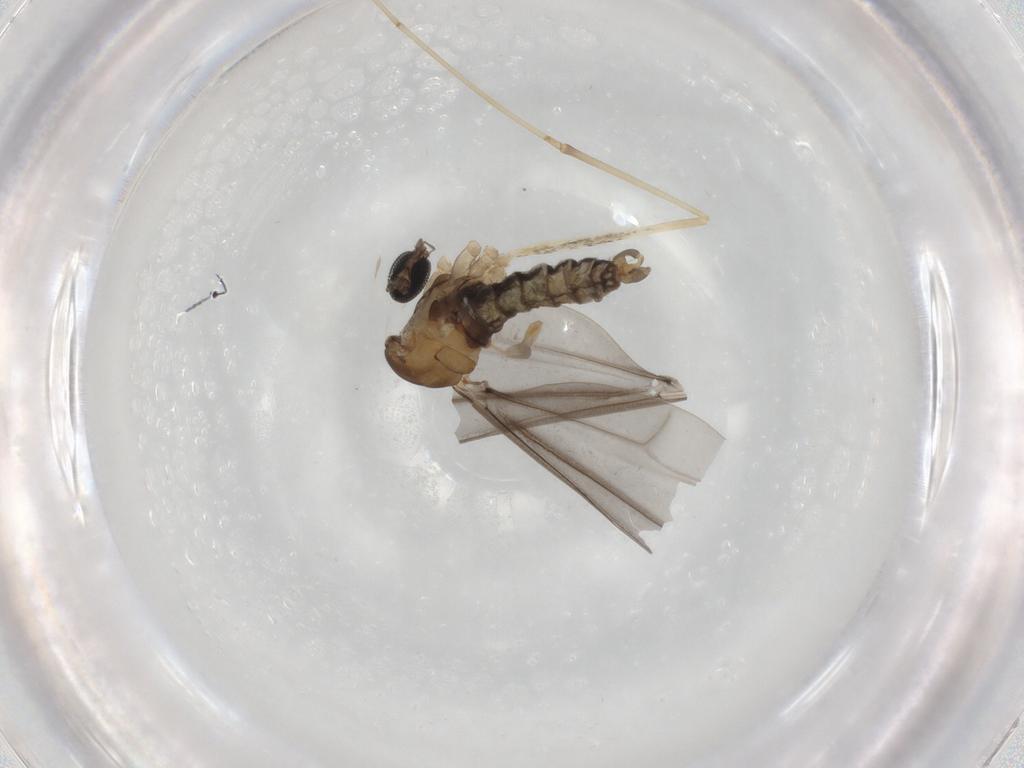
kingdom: Animalia
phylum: Arthropoda
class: Insecta
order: Diptera
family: Cecidomyiidae
